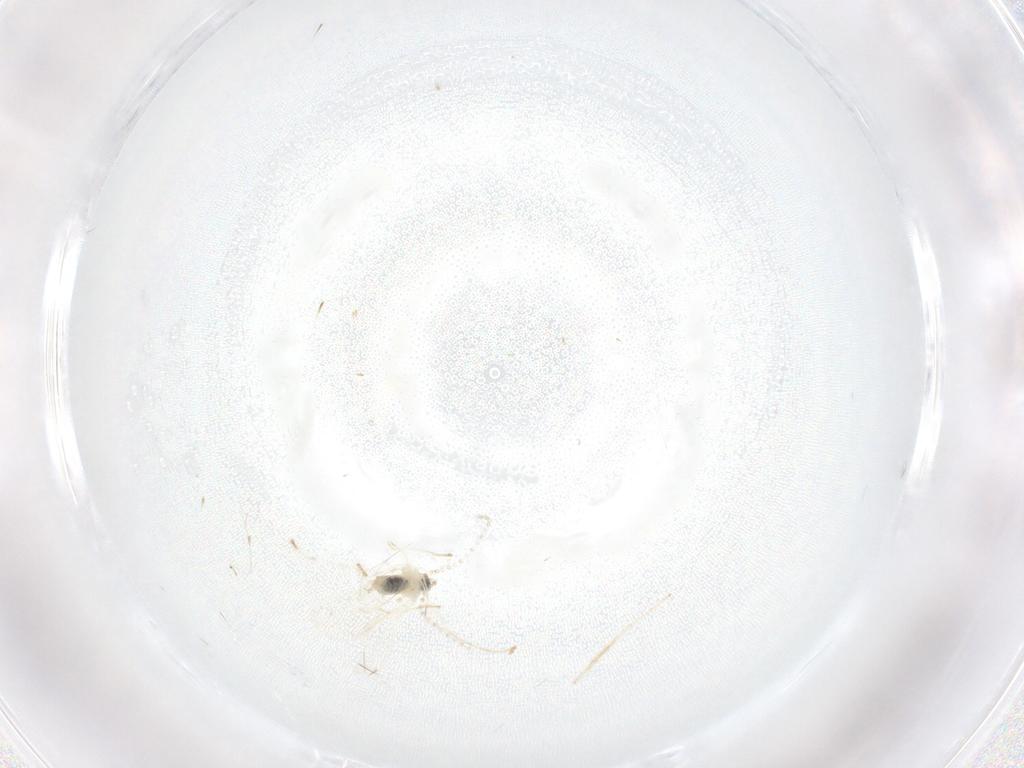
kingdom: Animalia
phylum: Arthropoda
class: Insecta
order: Diptera
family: Chironomidae
